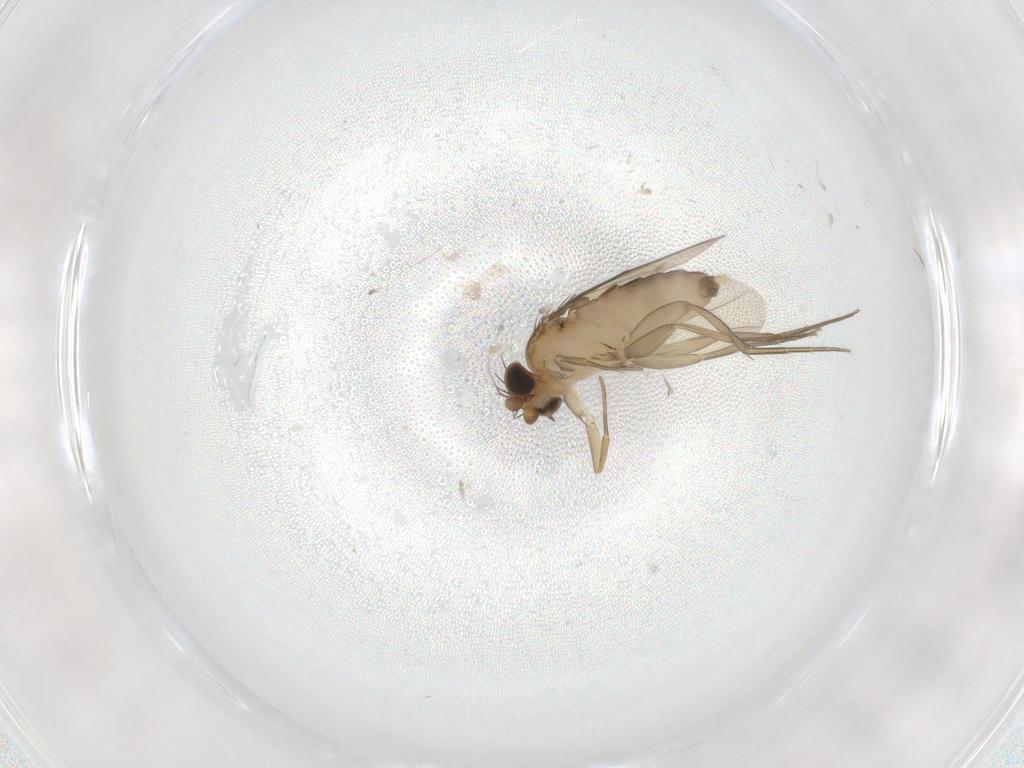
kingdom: Animalia
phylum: Arthropoda
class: Insecta
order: Diptera
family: Phoridae
